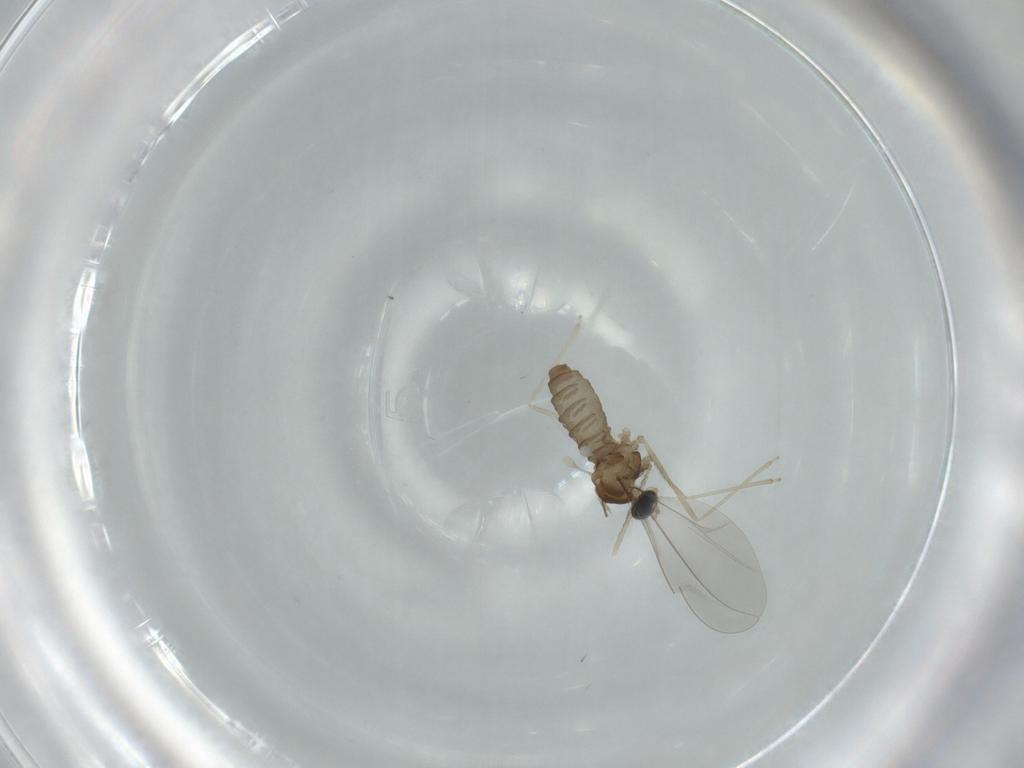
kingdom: Animalia
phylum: Arthropoda
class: Insecta
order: Diptera
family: Cecidomyiidae
